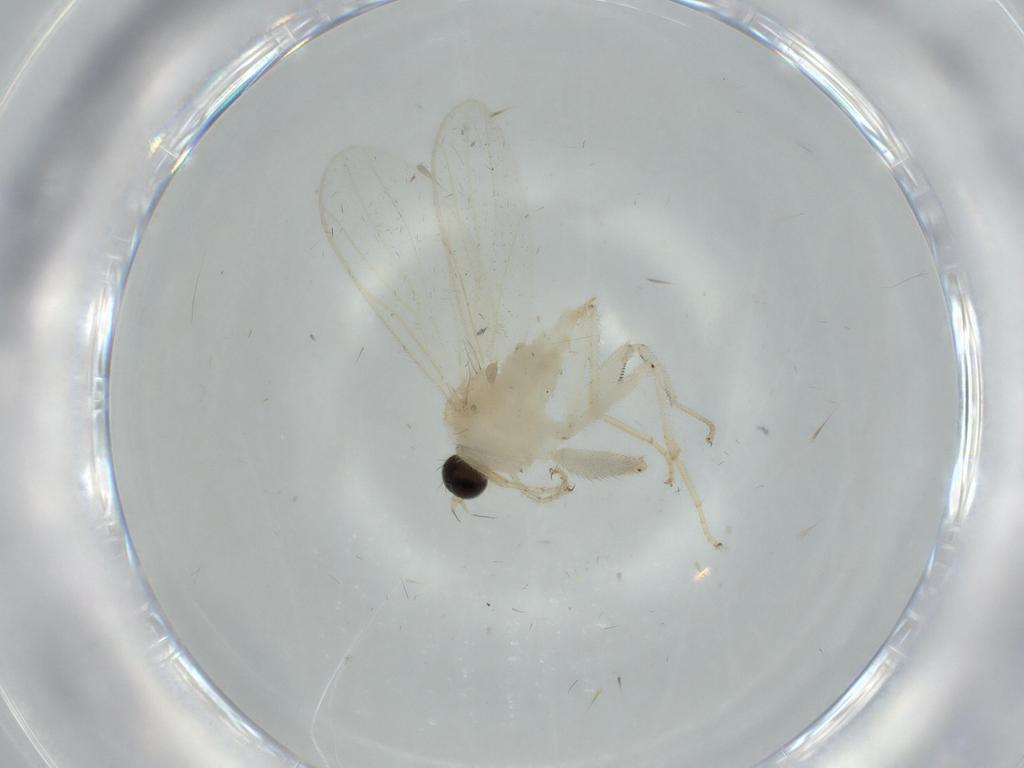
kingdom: Animalia
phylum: Arthropoda
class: Insecta
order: Diptera
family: Hybotidae
